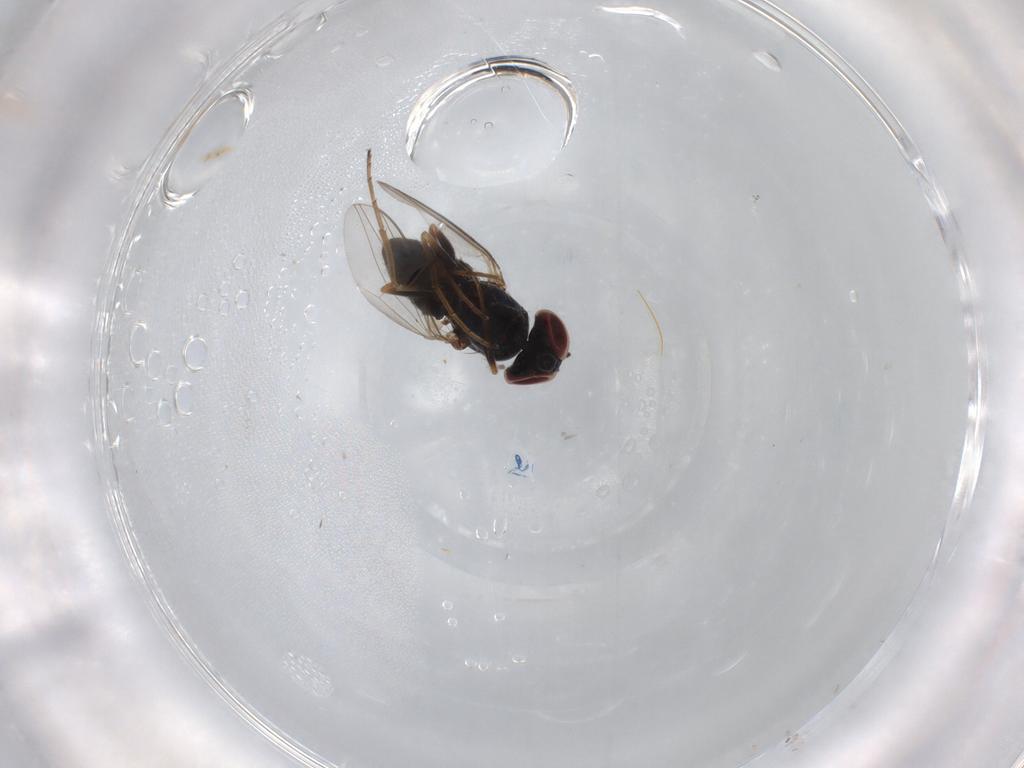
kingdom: Animalia
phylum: Arthropoda
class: Insecta
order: Diptera
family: Dolichopodidae
